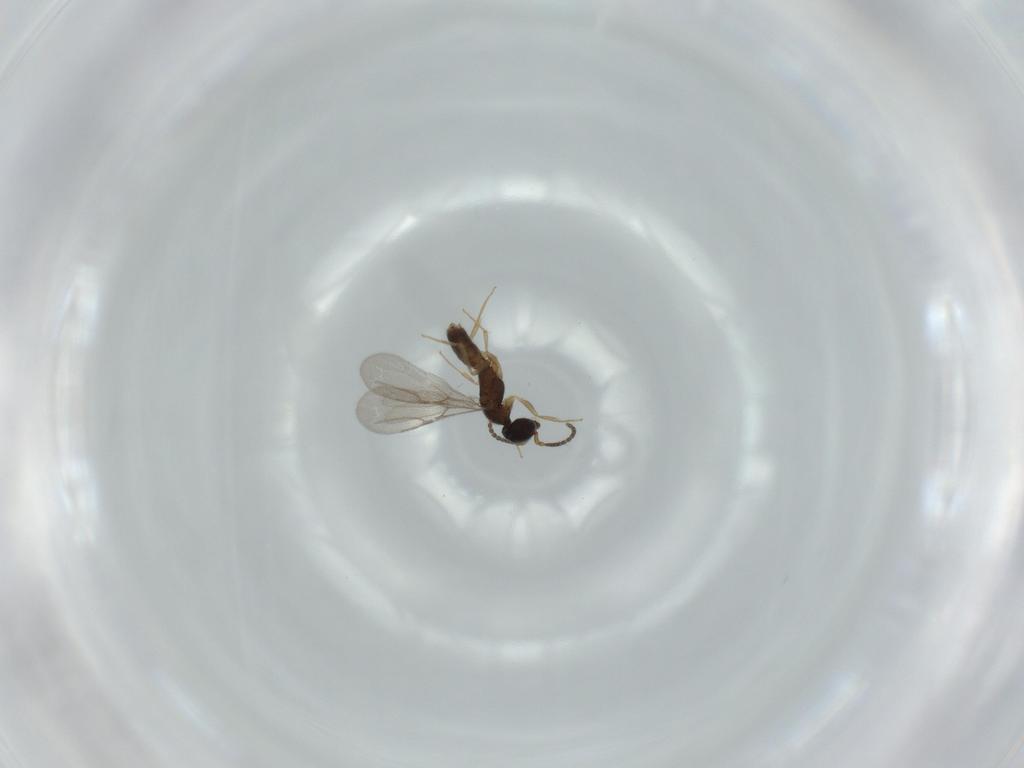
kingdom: Animalia
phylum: Arthropoda
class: Insecta
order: Hymenoptera
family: Bethylidae
